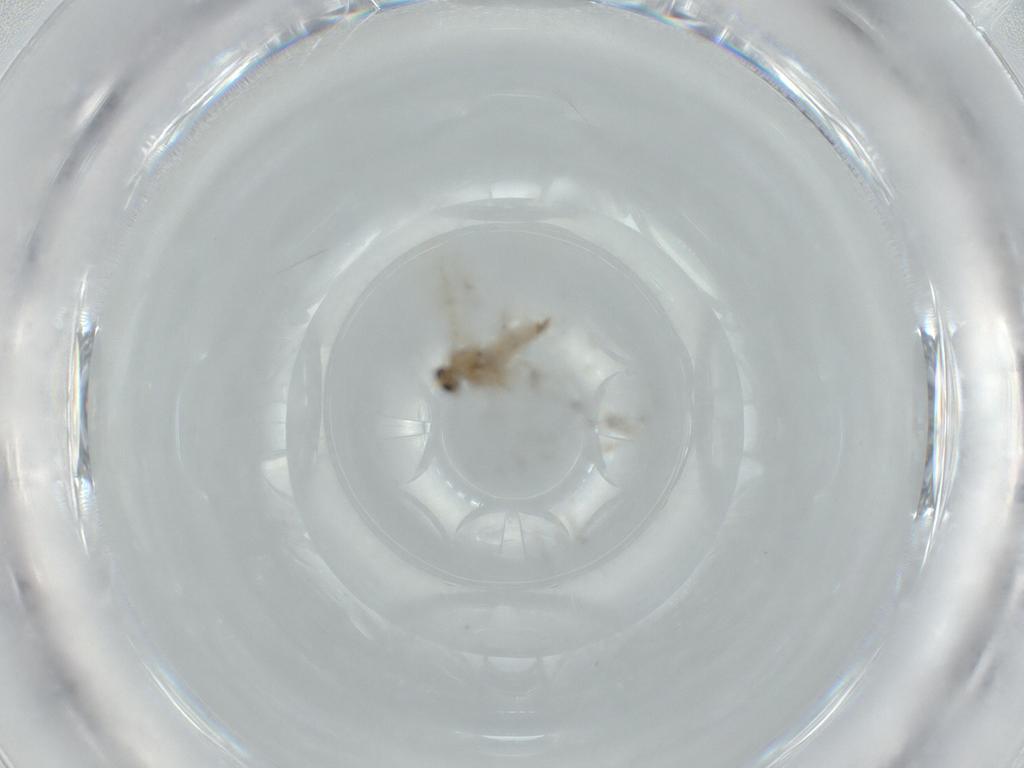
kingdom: Animalia
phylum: Arthropoda
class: Insecta
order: Diptera
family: Cecidomyiidae
